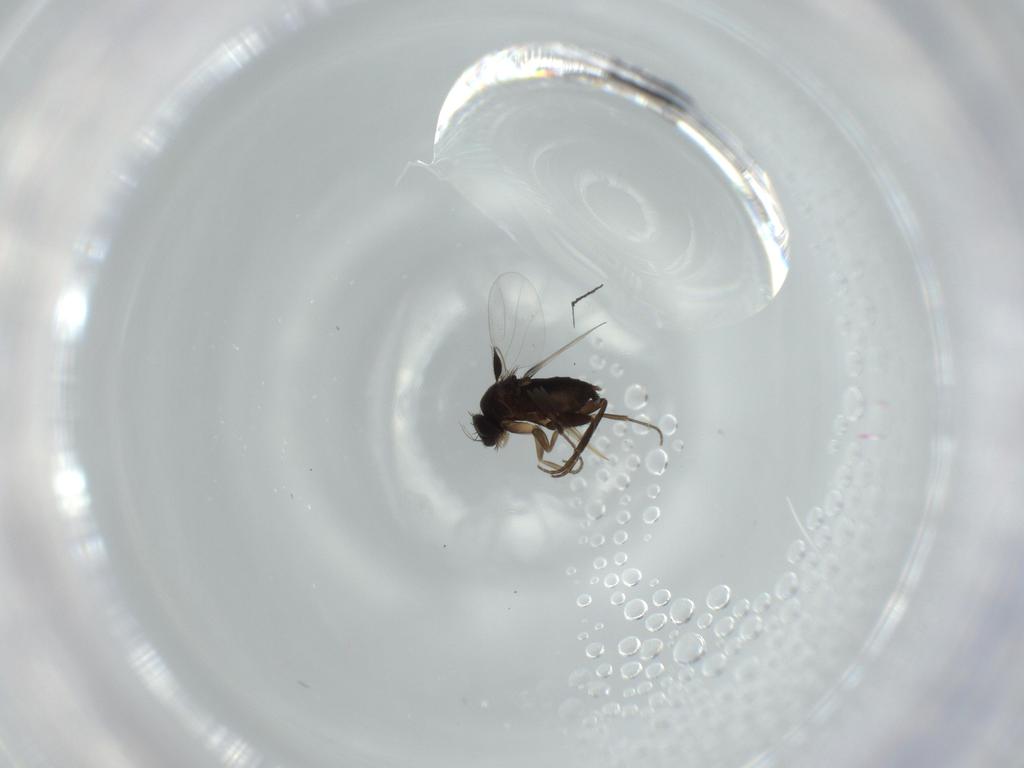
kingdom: Animalia
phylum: Arthropoda
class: Insecta
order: Diptera
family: Phoridae
